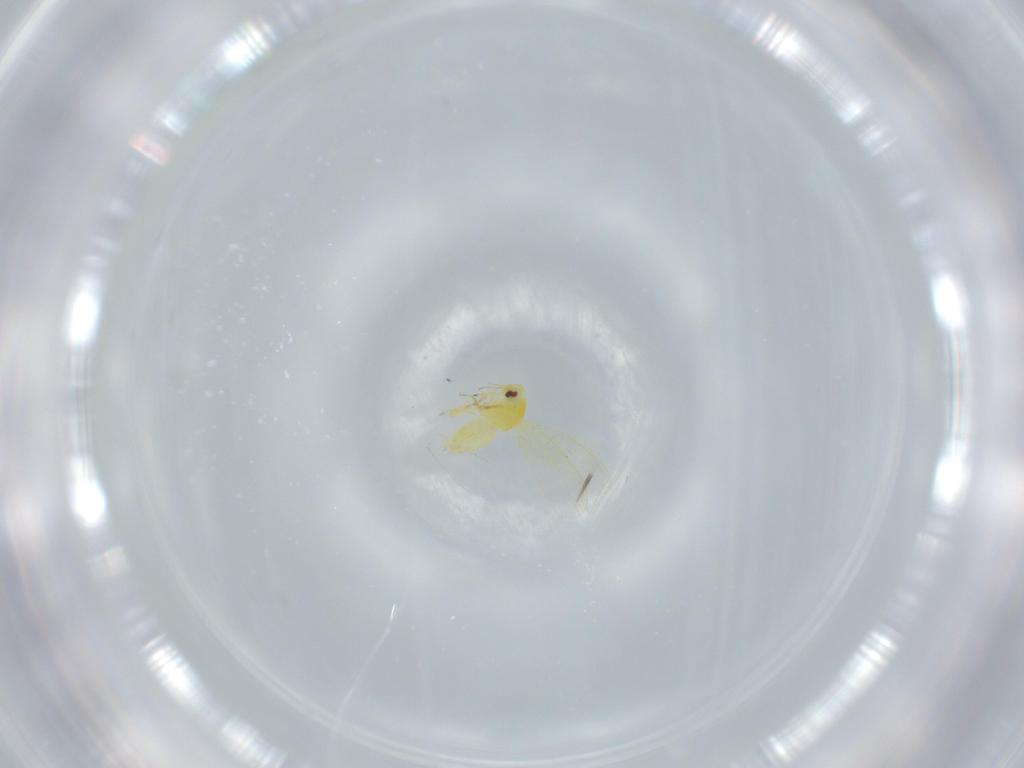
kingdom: Animalia
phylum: Arthropoda
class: Insecta
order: Hemiptera
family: Aleyrodidae
